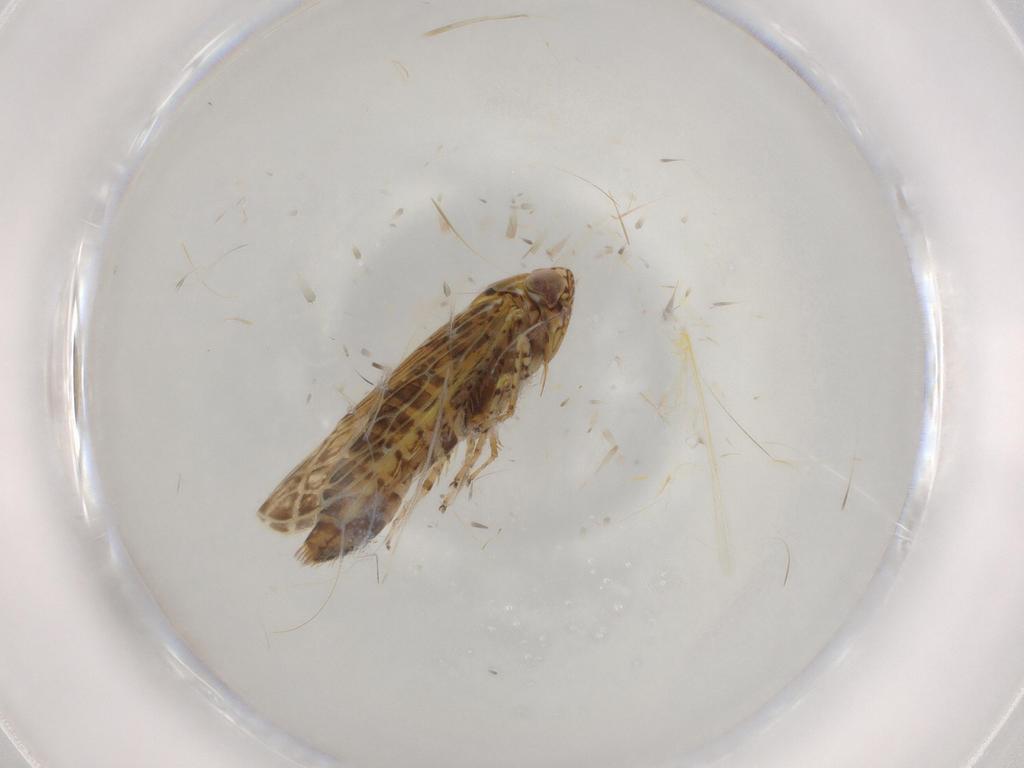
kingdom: Animalia
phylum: Arthropoda
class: Insecta
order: Hemiptera
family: Cicadellidae
